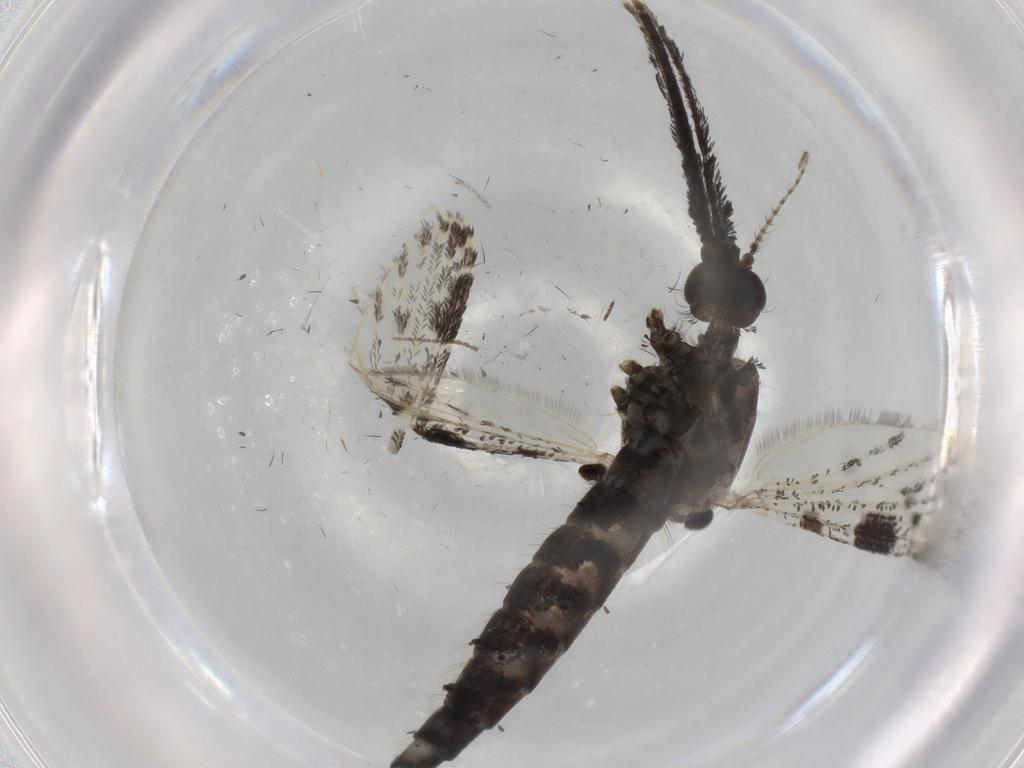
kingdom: Animalia
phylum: Arthropoda
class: Insecta
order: Diptera
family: Phoridae
